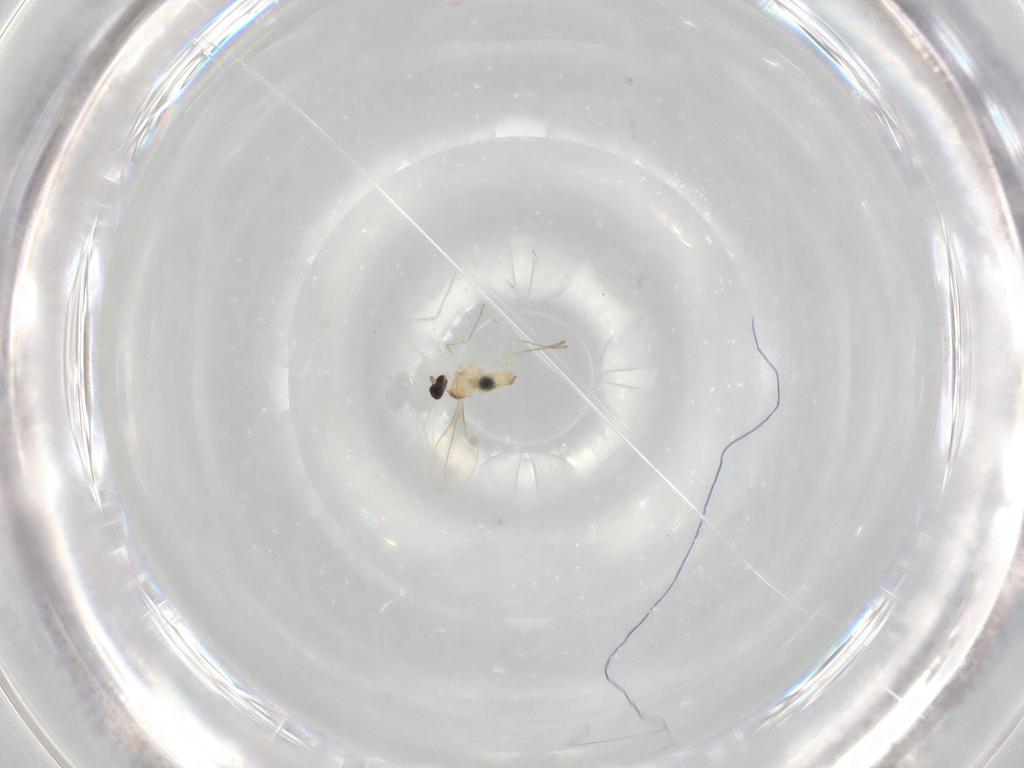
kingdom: Animalia
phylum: Arthropoda
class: Insecta
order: Diptera
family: Cecidomyiidae
